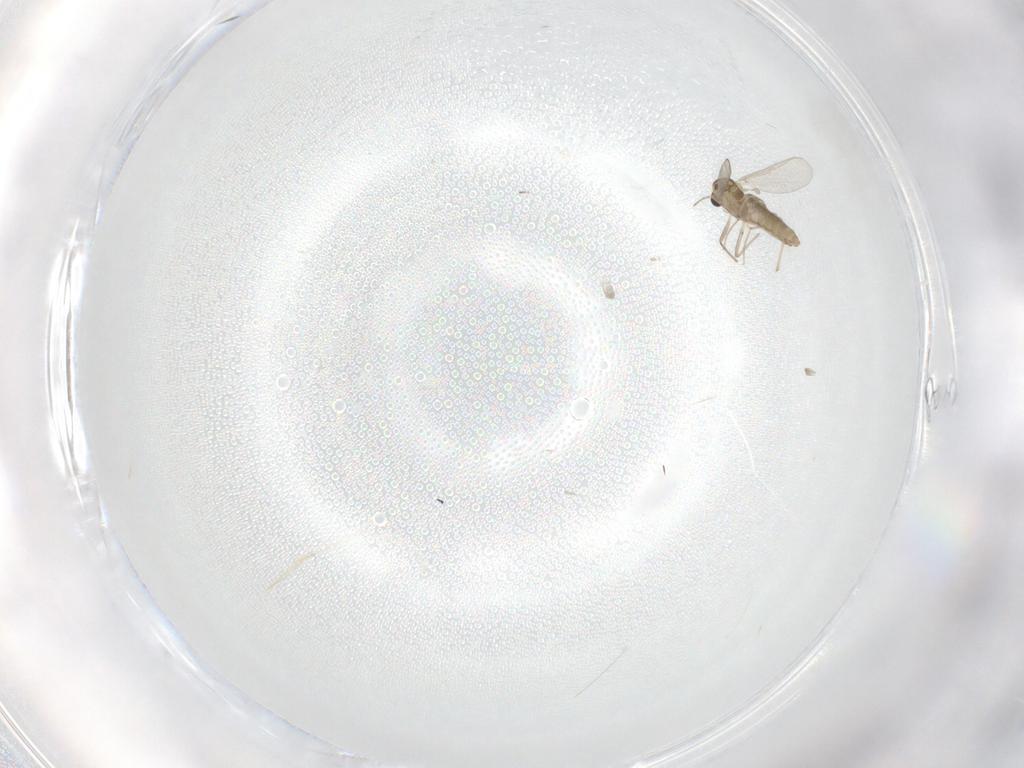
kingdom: Animalia
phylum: Arthropoda
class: Insecta
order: Diptera
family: Chironomidae
